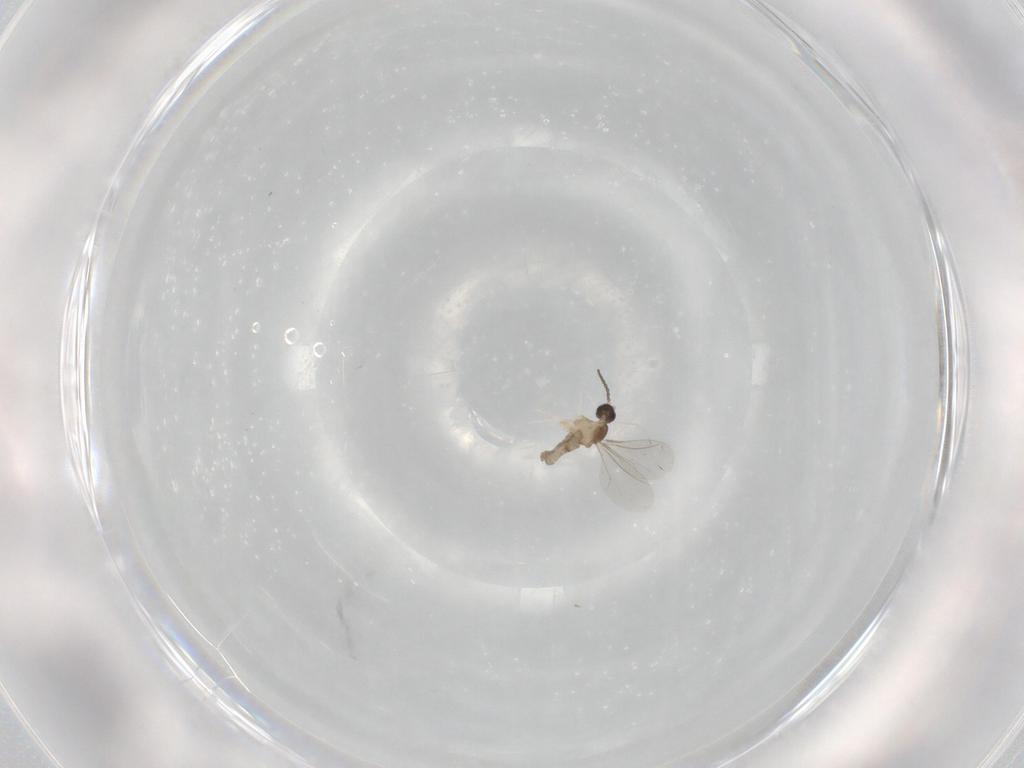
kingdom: Animalia
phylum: Arthropoda
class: Insecta
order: Diptera
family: Cecidomyiidae
